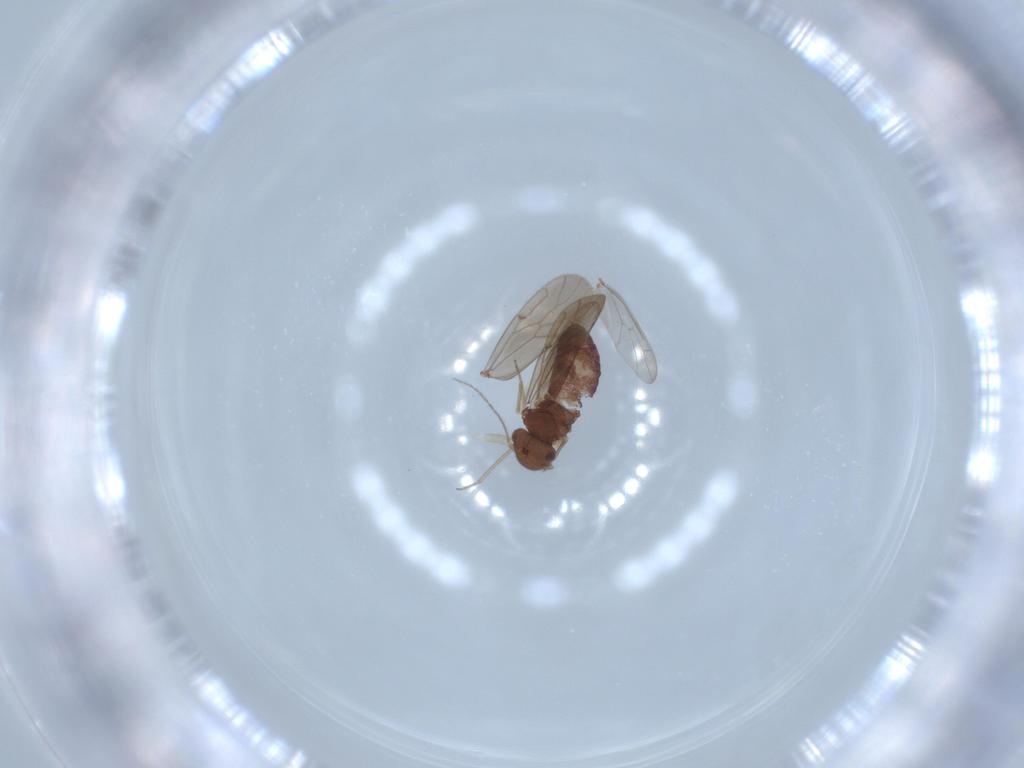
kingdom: Animalia
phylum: Arthropoda
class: Insecta
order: Psocodea
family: Ectopsocidae
